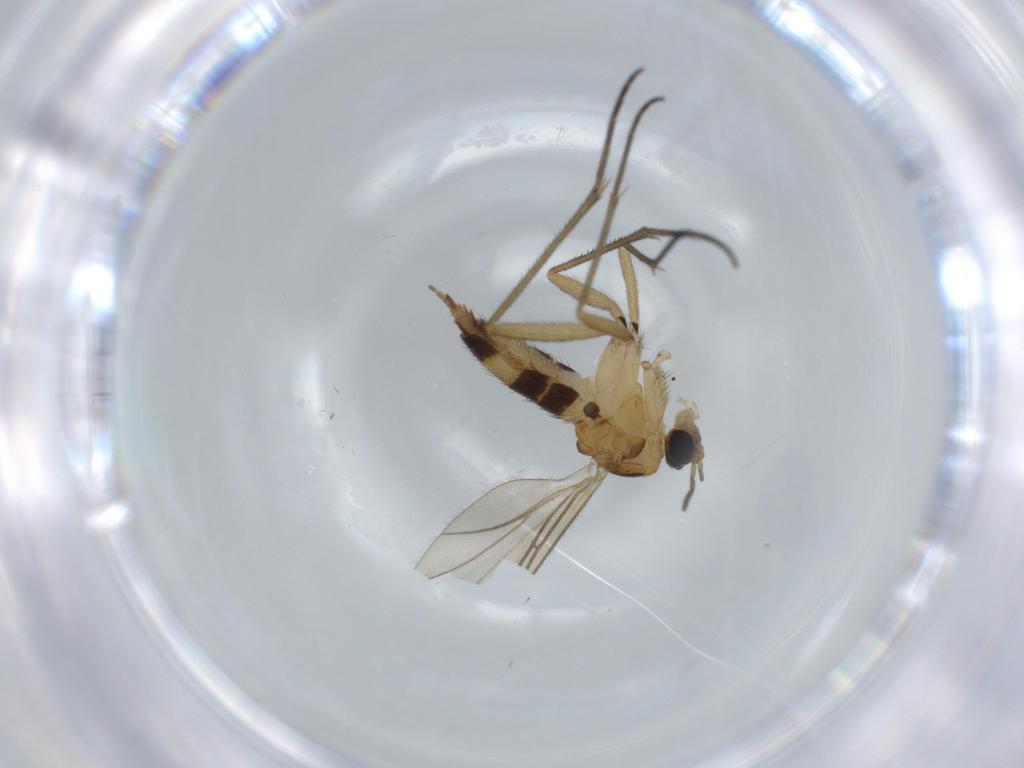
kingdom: Animalia
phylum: Arthropoda
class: Insecta
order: Diptera
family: Sciaridae
